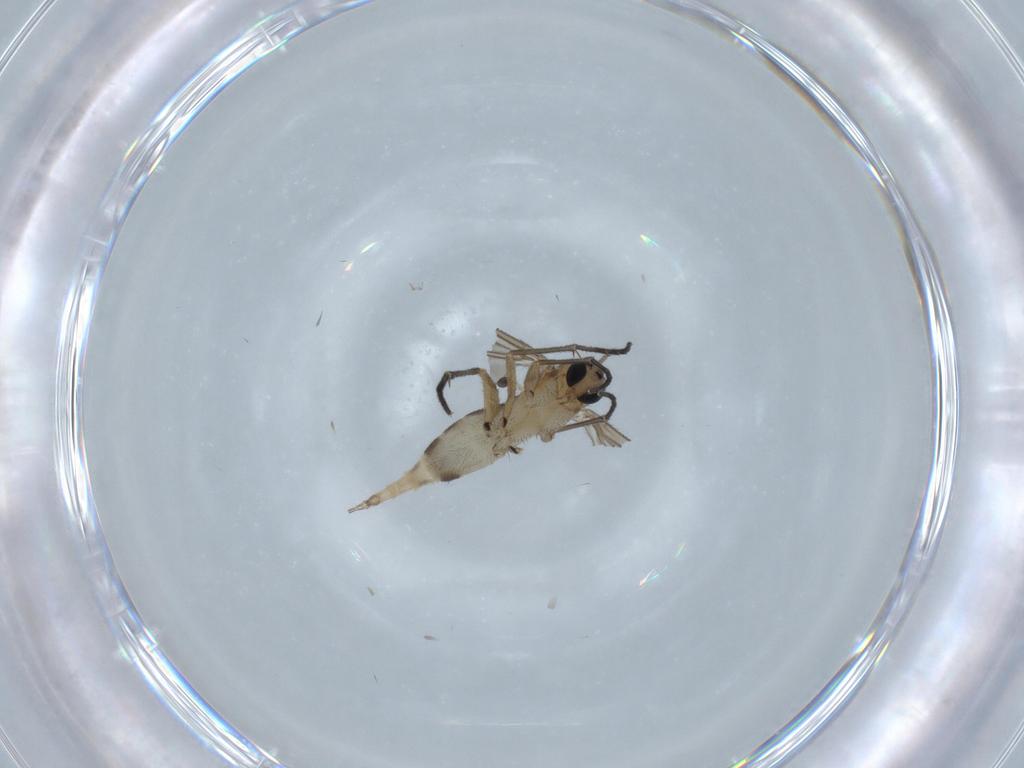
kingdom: Animalia
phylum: Arthropoda
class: Insecta
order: Diptera
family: Sciaridae
